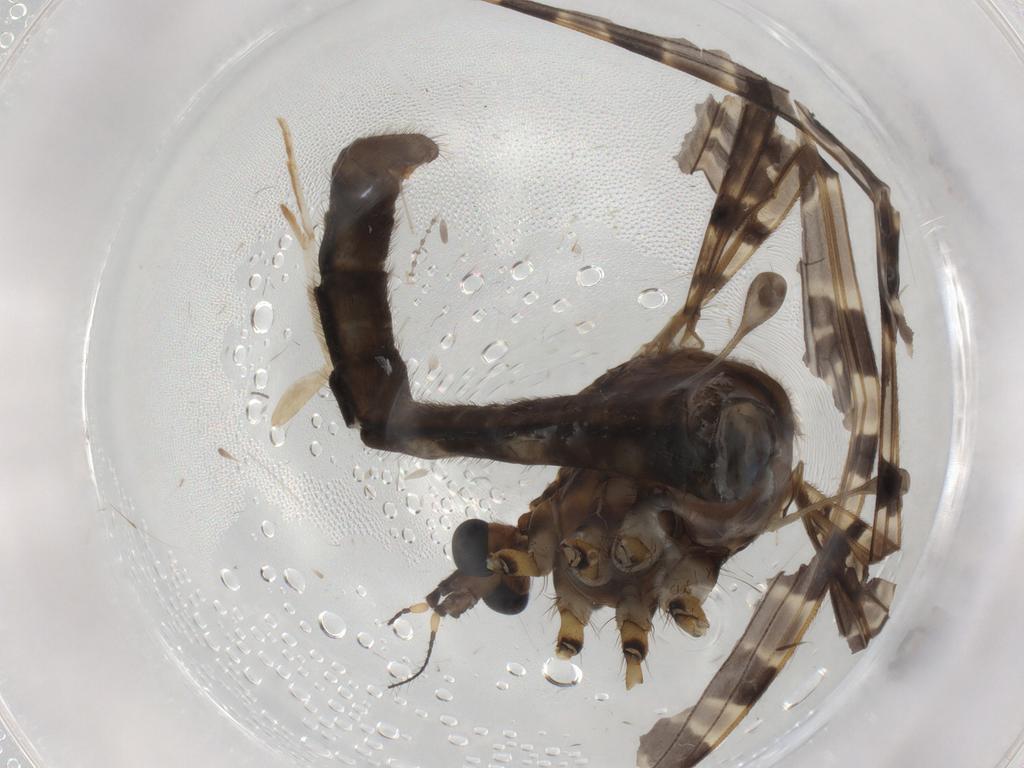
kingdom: Animalia
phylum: Arthropoda
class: Insecta
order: Diptera
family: Limoniidae
